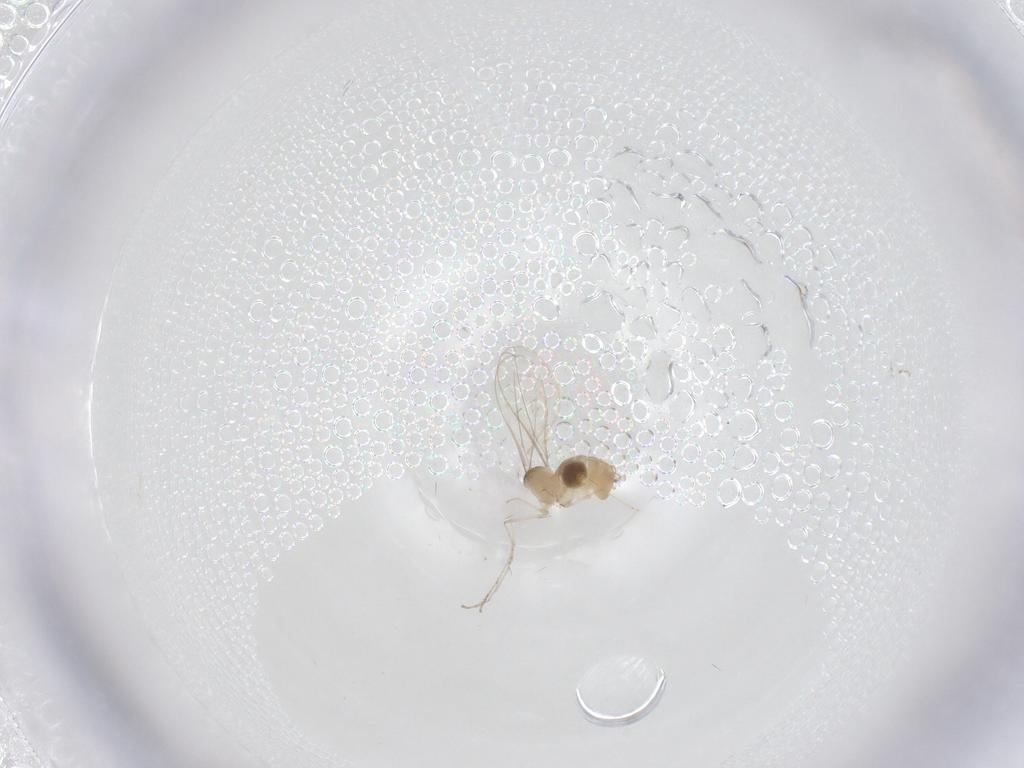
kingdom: Animalia
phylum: Arthropoda
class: Insecta
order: Diptera
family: Cecidomyiidae
